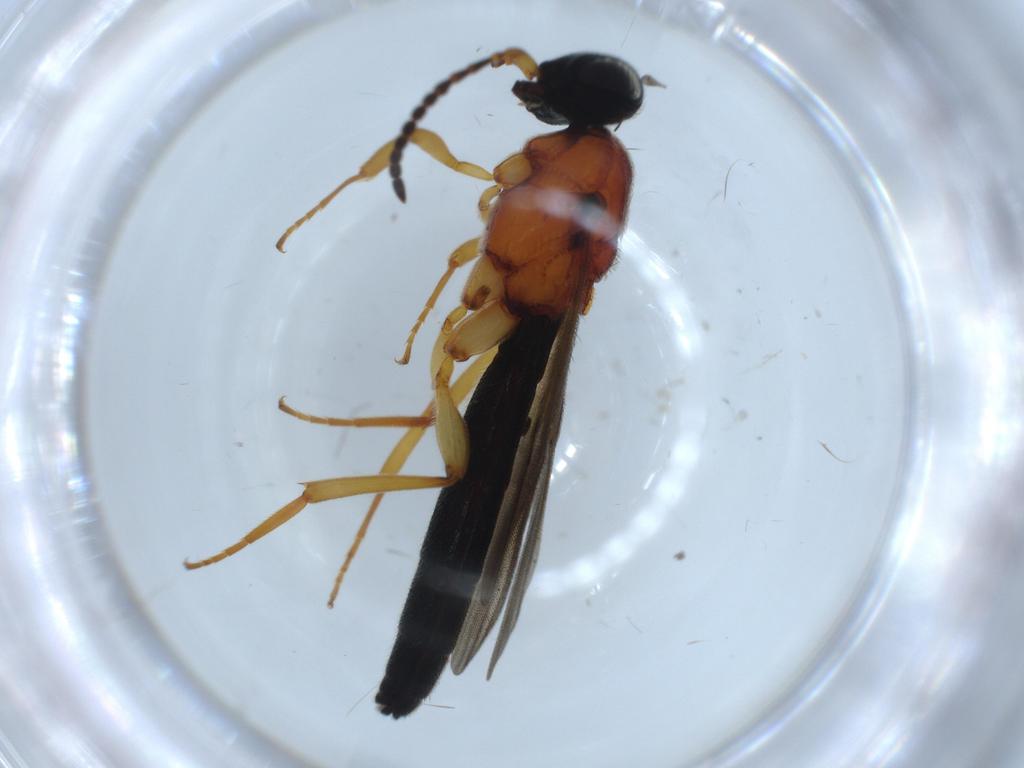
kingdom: Animalia
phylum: Arthropoda
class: Insecta
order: Hymenoptera
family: Scelionidae
